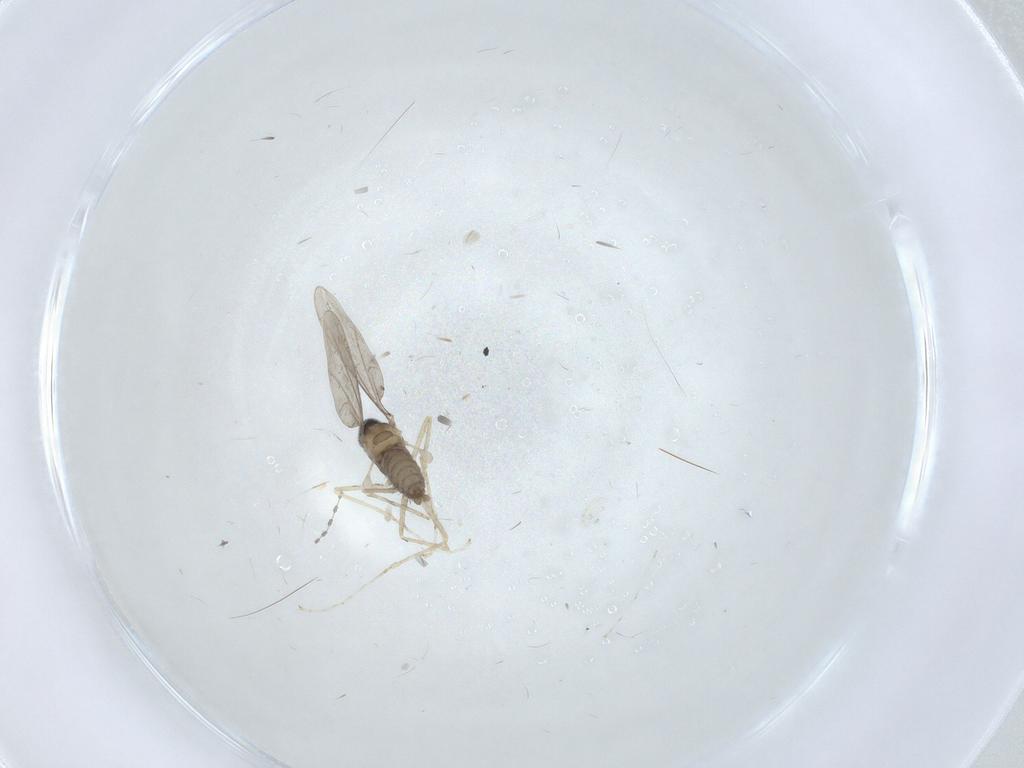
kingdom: Animalia
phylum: Arthropoda
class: Insecta
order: Diptera
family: Cecidomyiidae
